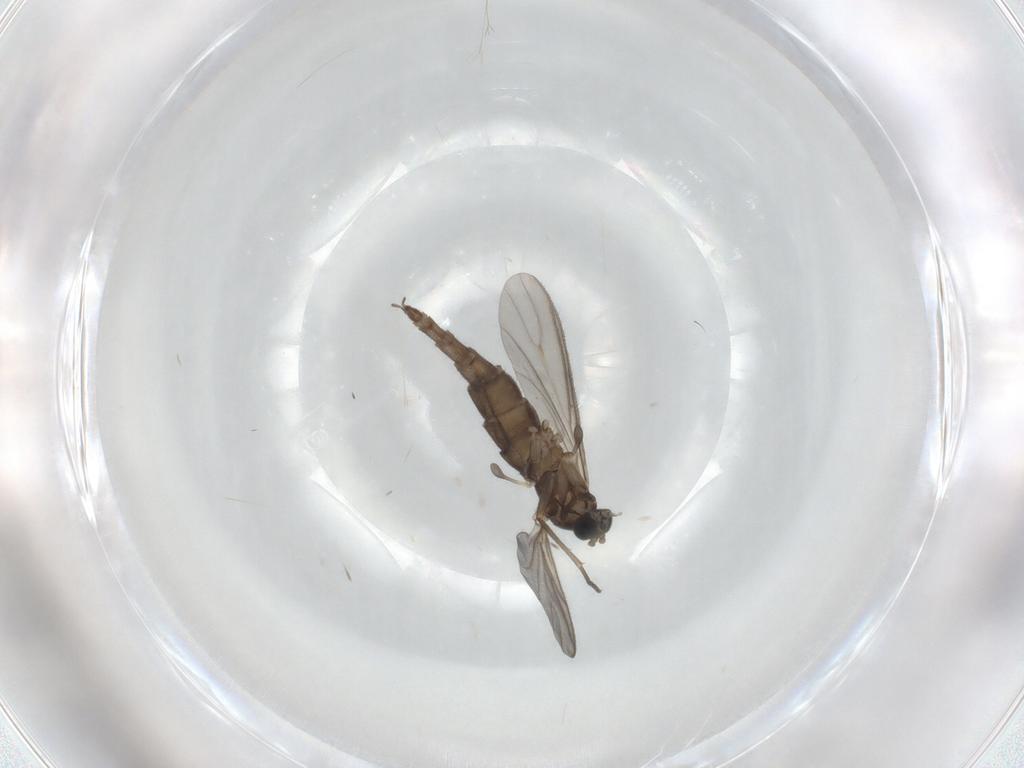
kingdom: Animalia
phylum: Arthropoda
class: Insecta
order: Diptera
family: Sciaridae
